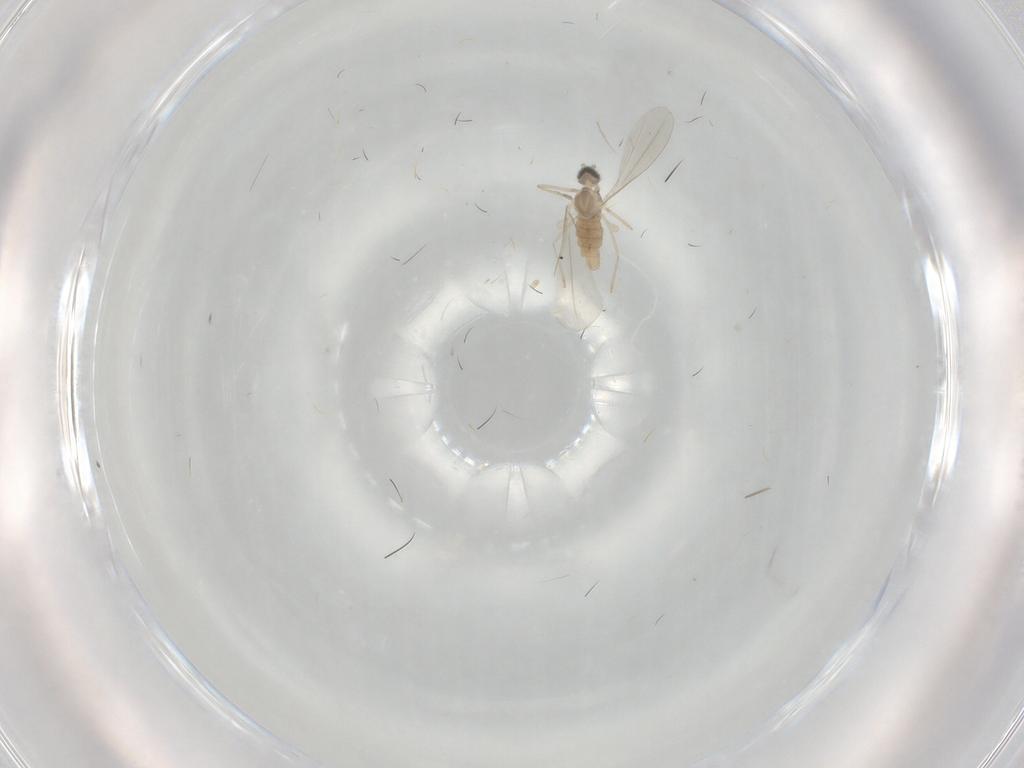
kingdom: Animalia
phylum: Arthropoda
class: Insecta
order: Diptera
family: Cecidomyiidae
